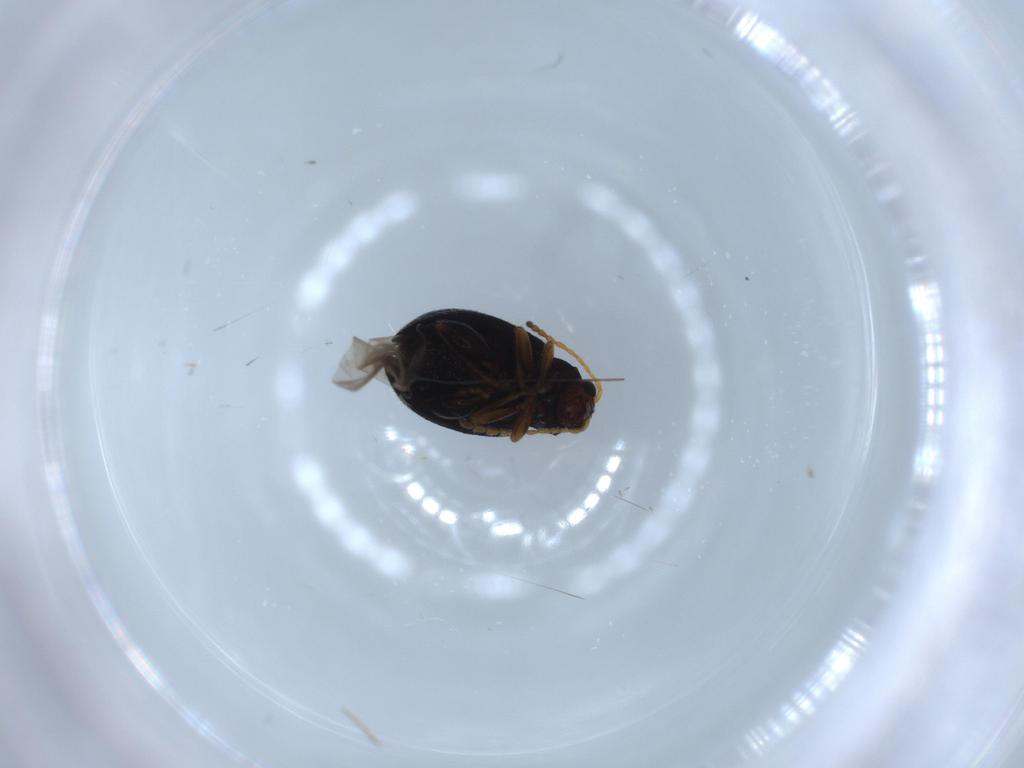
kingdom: Animalia
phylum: Arthropoda
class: Insecta
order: Coleoptera
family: Chrysomelidae
